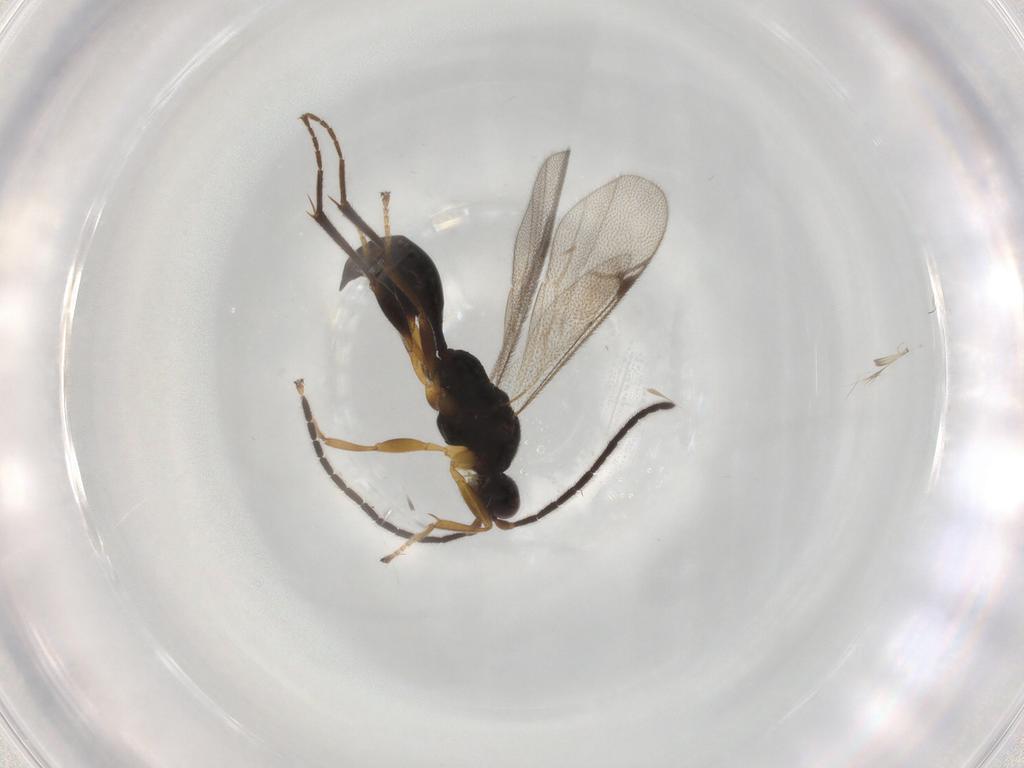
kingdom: Animalia
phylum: Arthropoda
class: Insecta
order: Hymenoptera
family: Proctotrupidae
